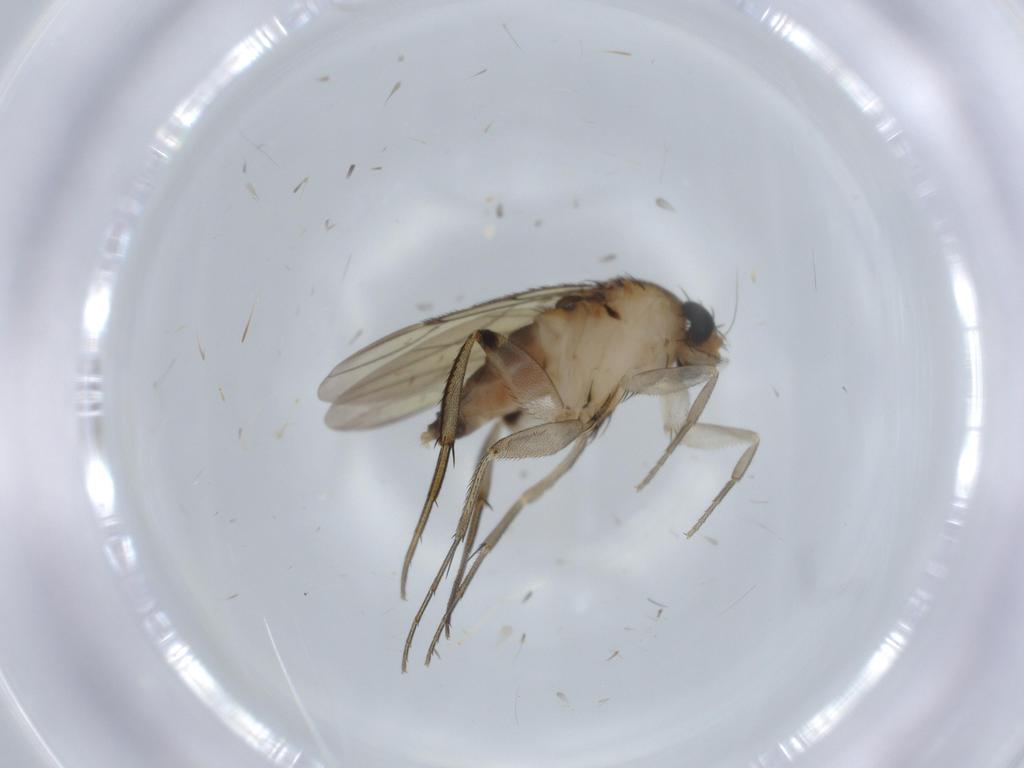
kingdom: Animalia
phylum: Arthropoda
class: Insecta
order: Diptera
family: Phoridae
